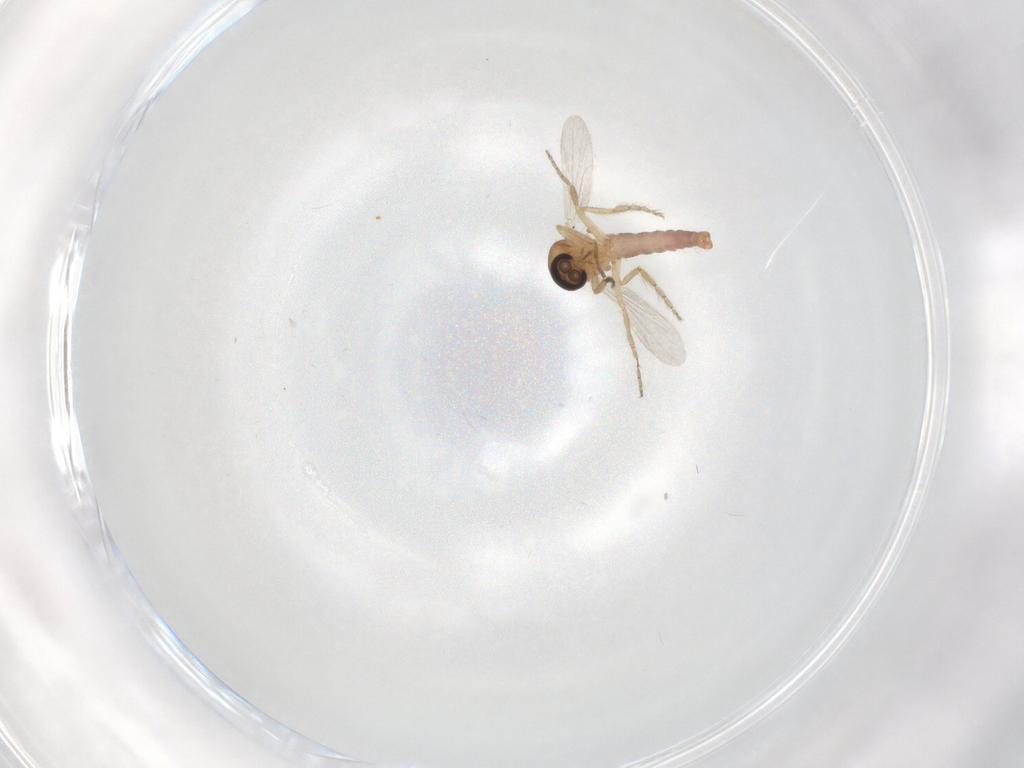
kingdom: Animalia
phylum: Arthropoda
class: Insecta
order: Diptera
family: Ceratopogonidae
